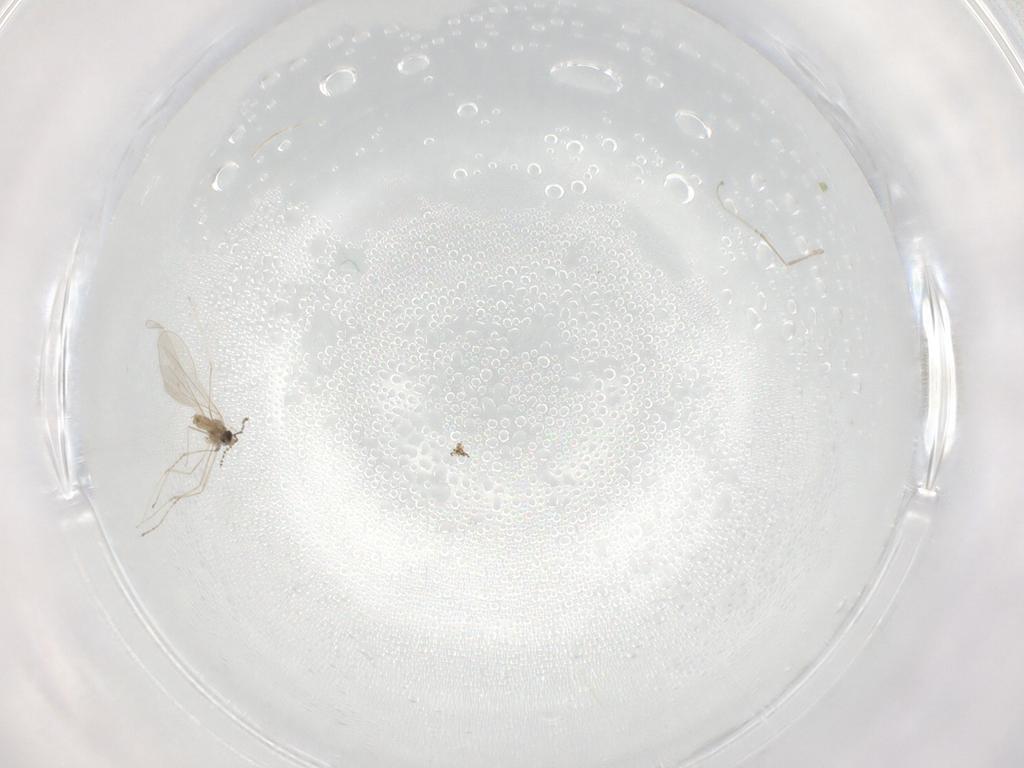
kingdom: Animalia
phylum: Arthropoda
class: Insecta
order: Diptera
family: Cecidomyiidae
